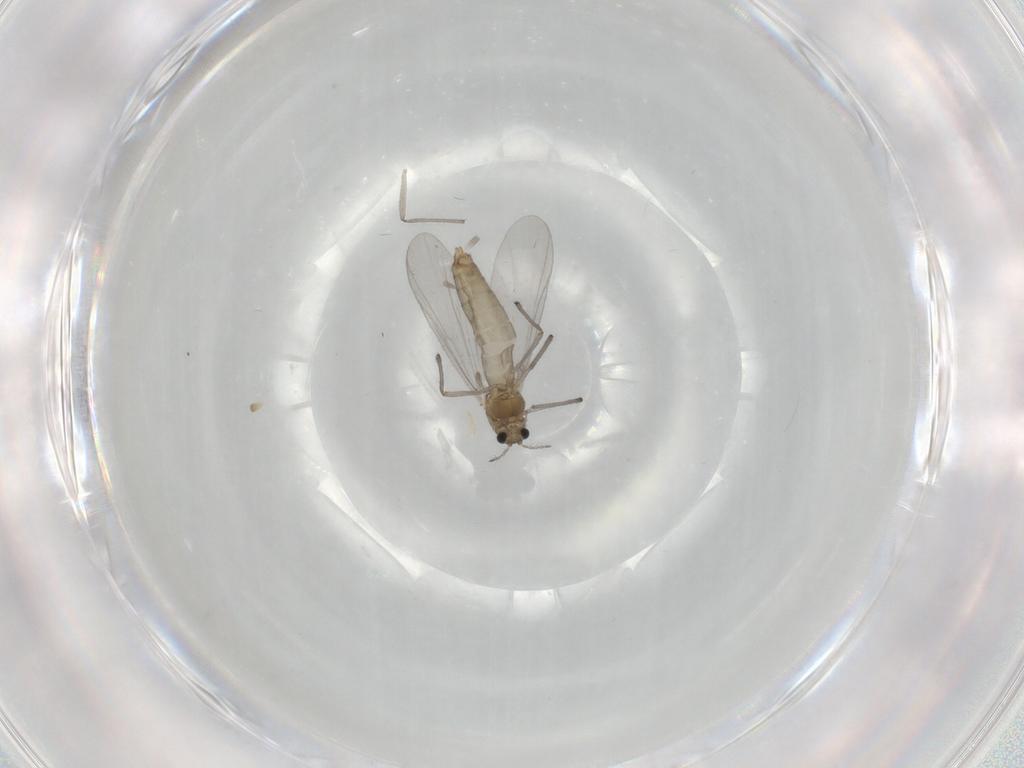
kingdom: Animalia
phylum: Arthropoda
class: Insecta
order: Diptera
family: Chironomidae
